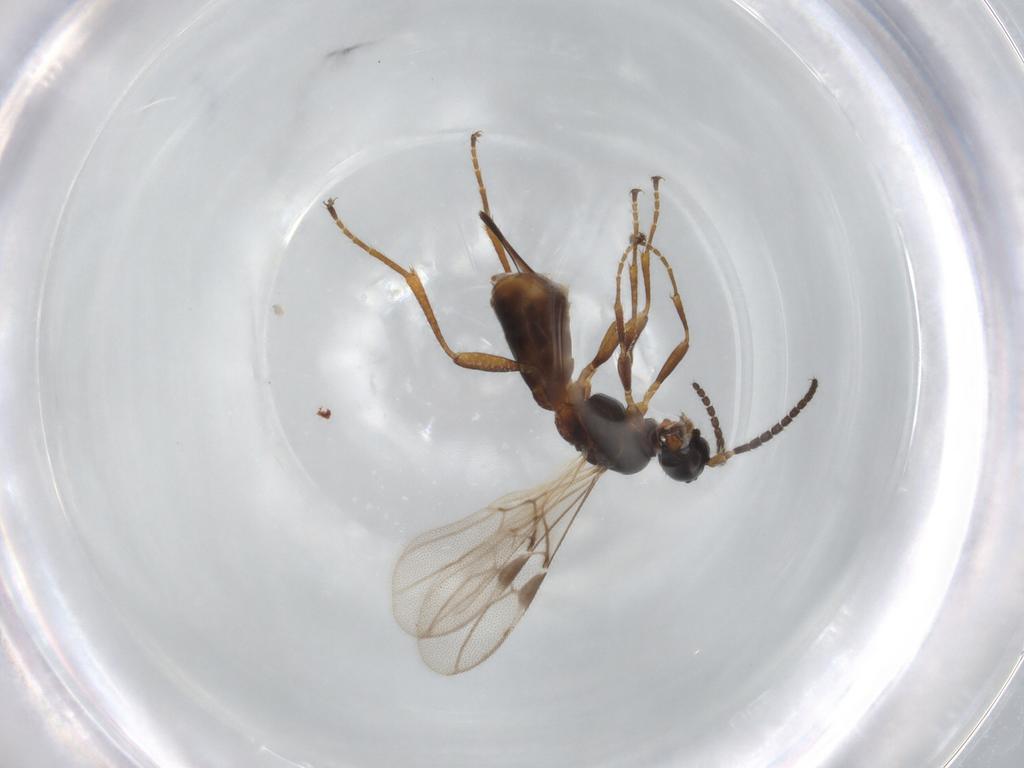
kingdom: Animalia
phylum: Arthropoda
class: Insecta
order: Hymenoptera
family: Braconidae
